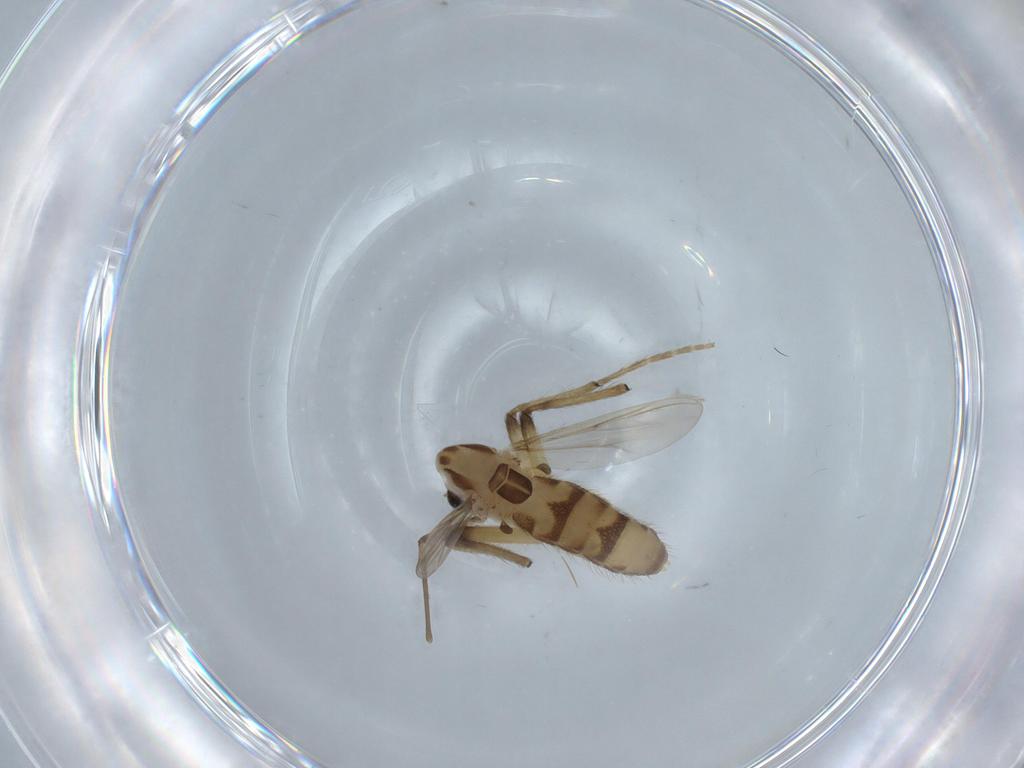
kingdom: Animalia
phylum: Arthropoda
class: Insecta
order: Diptera
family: Chironomidae
